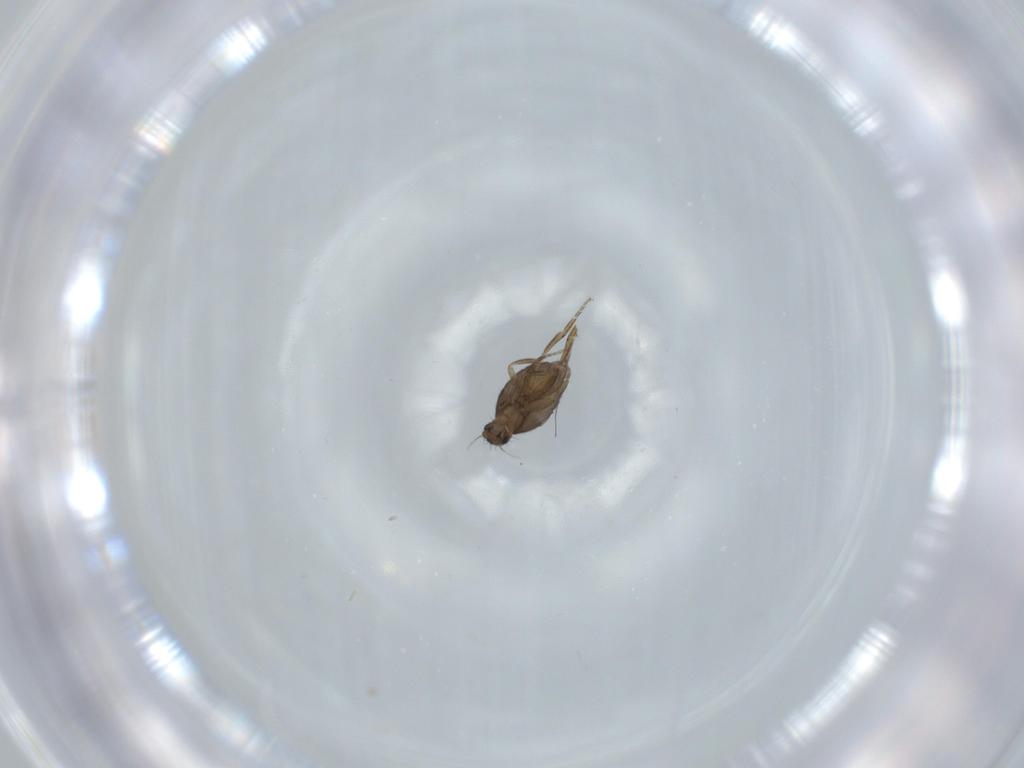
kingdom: Animalia
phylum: Arthropoda
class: Insecta
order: Diptera
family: Phoridae
